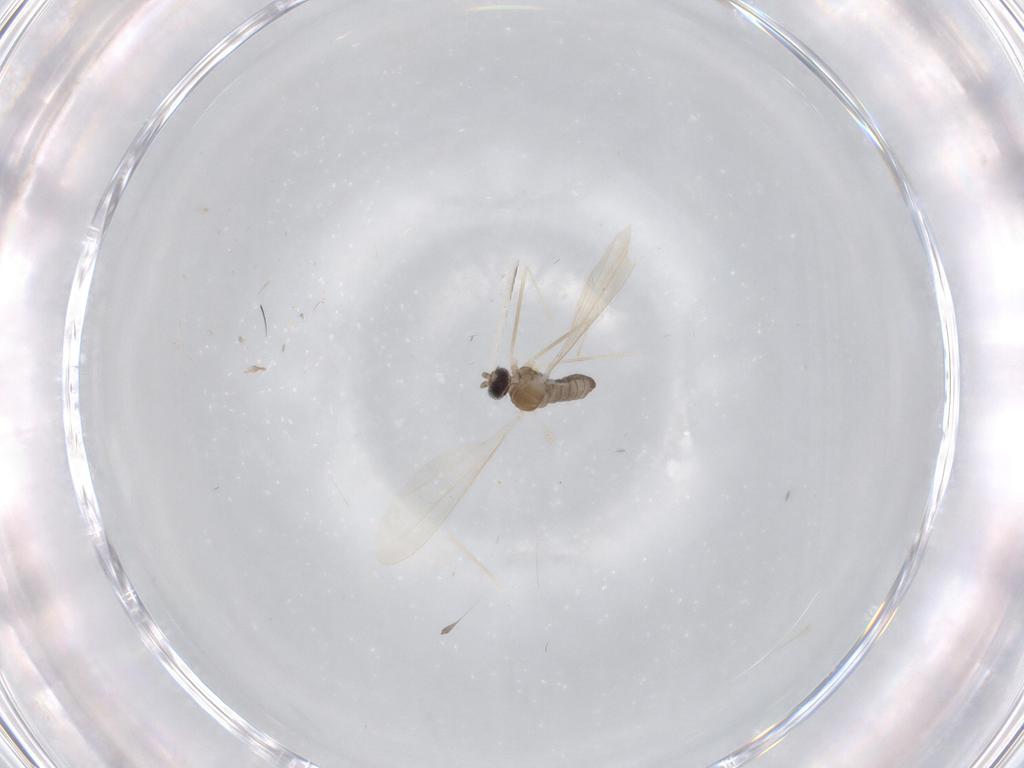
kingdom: Animalia
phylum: Arthropoda
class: Insecta
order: Diptera
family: Cecidomyiidae
